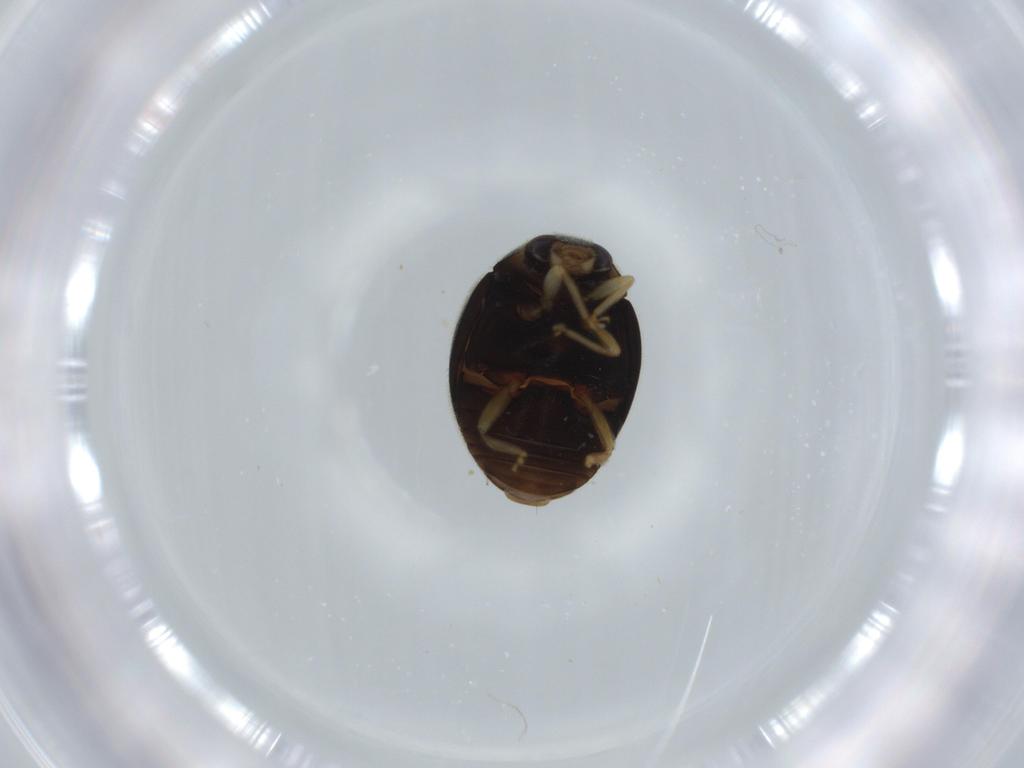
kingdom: Animalia
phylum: Arthropoda
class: Insecta
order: Coleoptera
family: Coccinellidae
